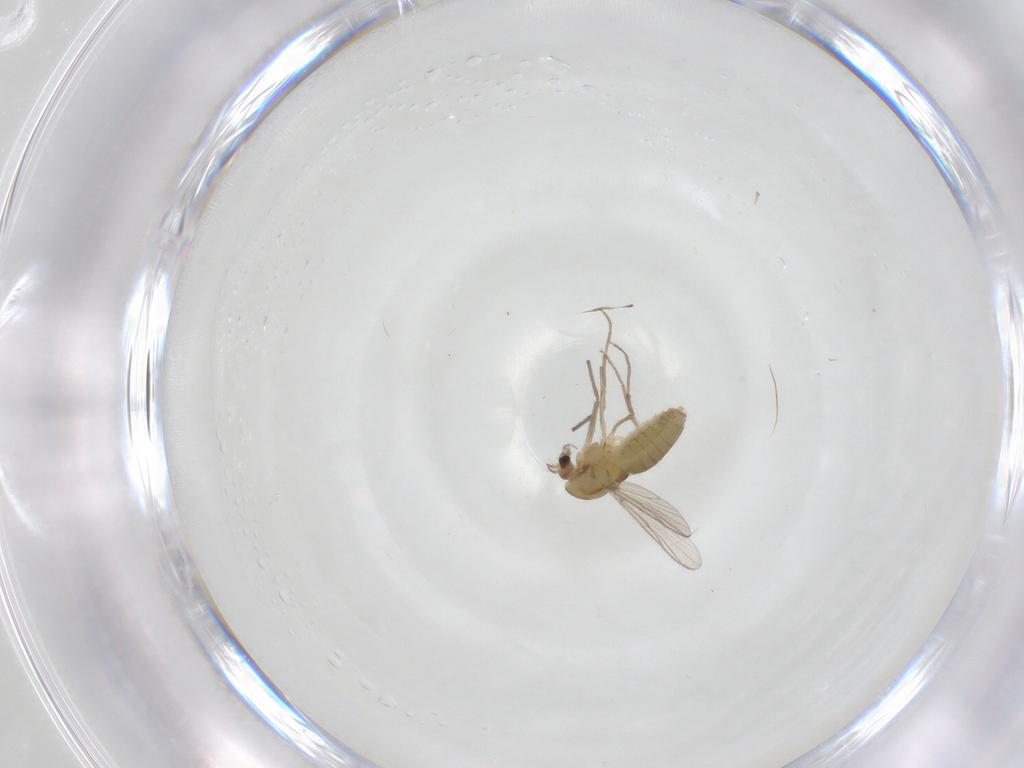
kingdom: Animalia
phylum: Arthropoda
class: Insecta
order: Diptera
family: Chironomidae
